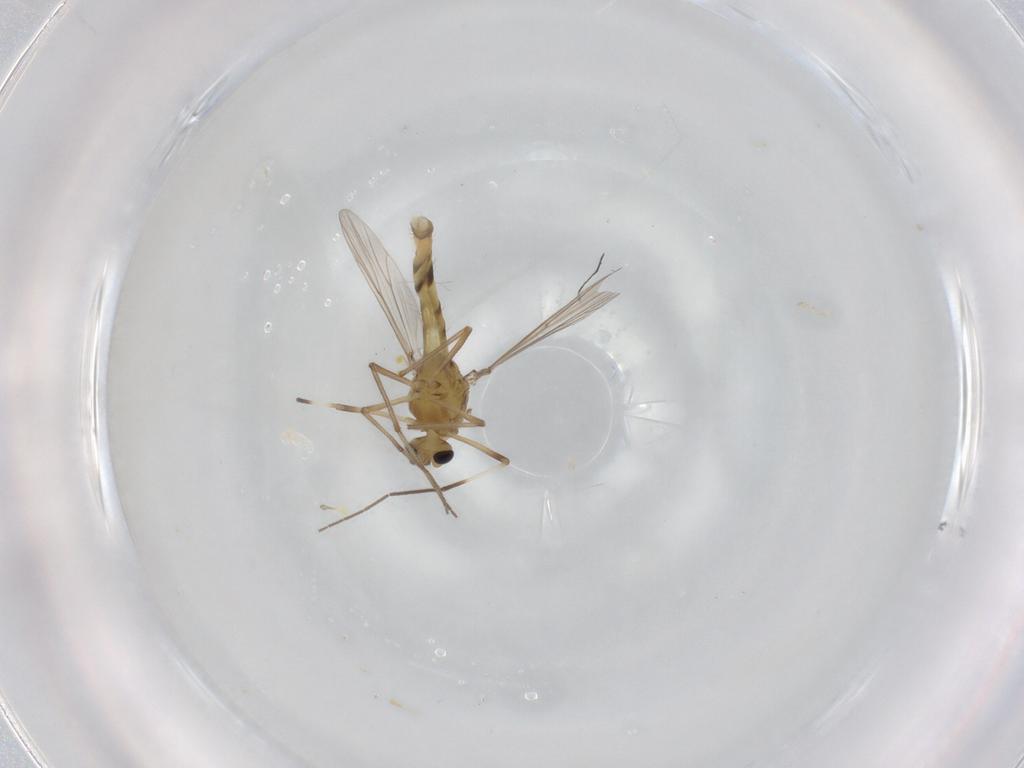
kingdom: Animalia
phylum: Arthropoda
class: Insecta
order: Diptera
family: Chironomidae
